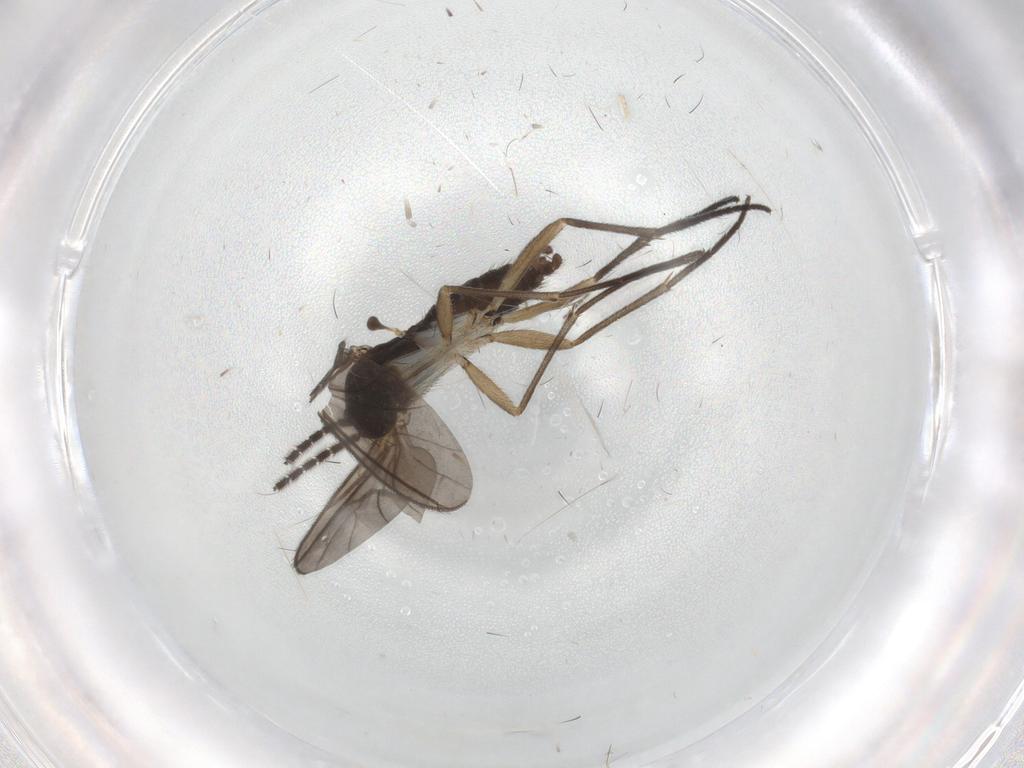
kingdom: Animalia
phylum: Arthropoda
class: Insecta
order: Diptera
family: Sciaridae
